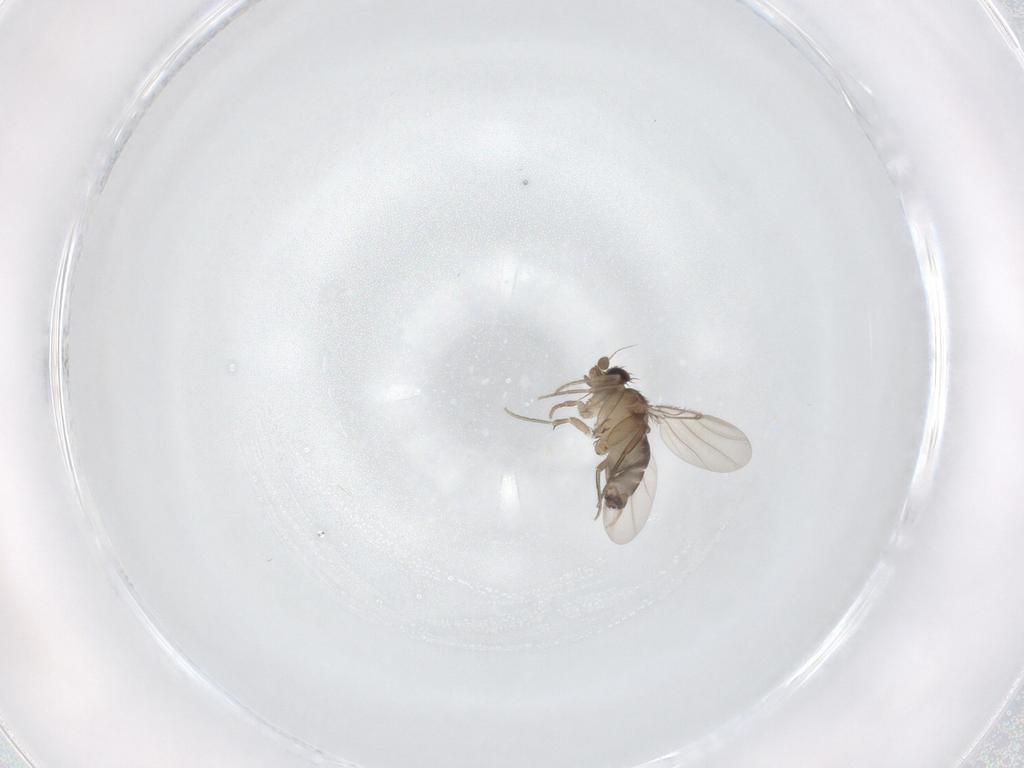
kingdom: Animalia
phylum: Arthropoda
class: Insecta
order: Diptera
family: Phoridae
